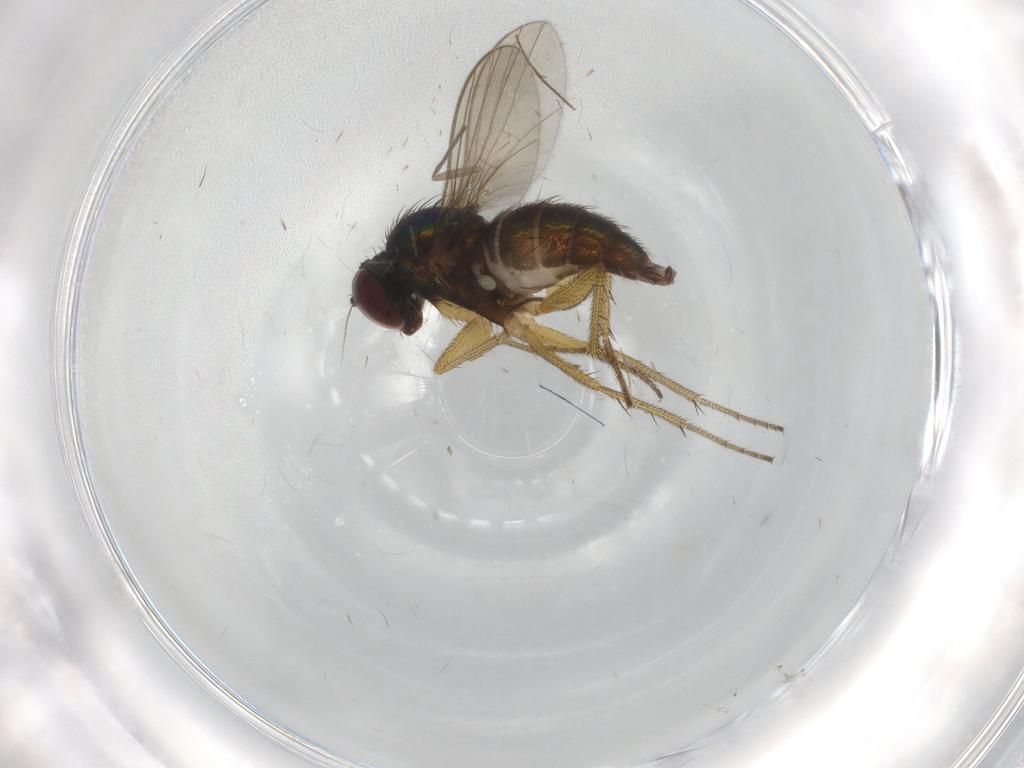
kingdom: Animalia
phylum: Arthropoda
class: Insecta
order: Diptera
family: Sciaridae
